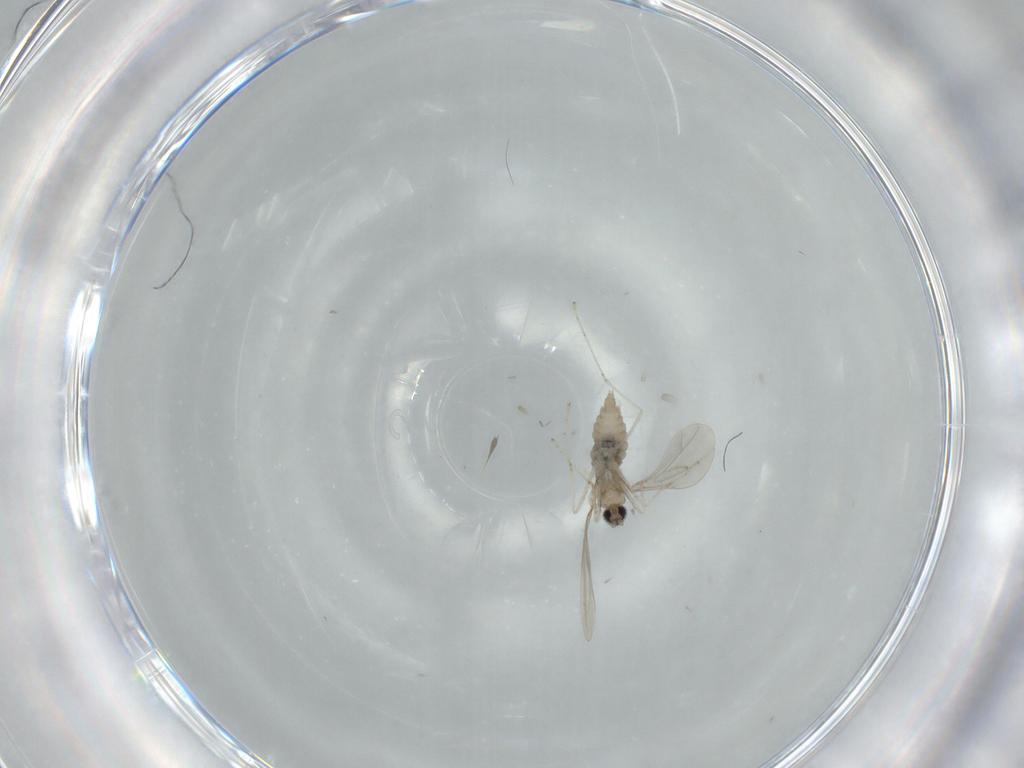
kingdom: Animalia
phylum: Arthropoda
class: Insecta
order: Diptera
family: Cecidomyiidae
